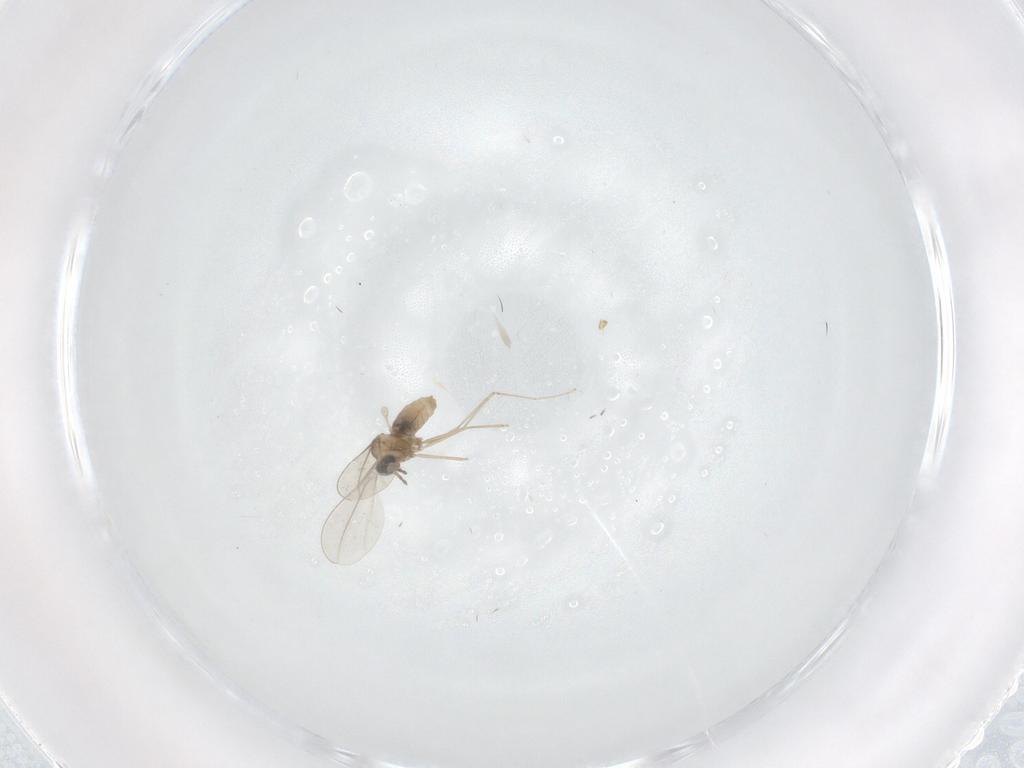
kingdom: Animalia
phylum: Arthropoda
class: Insecta
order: Diptera
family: Cecidomyiidae
